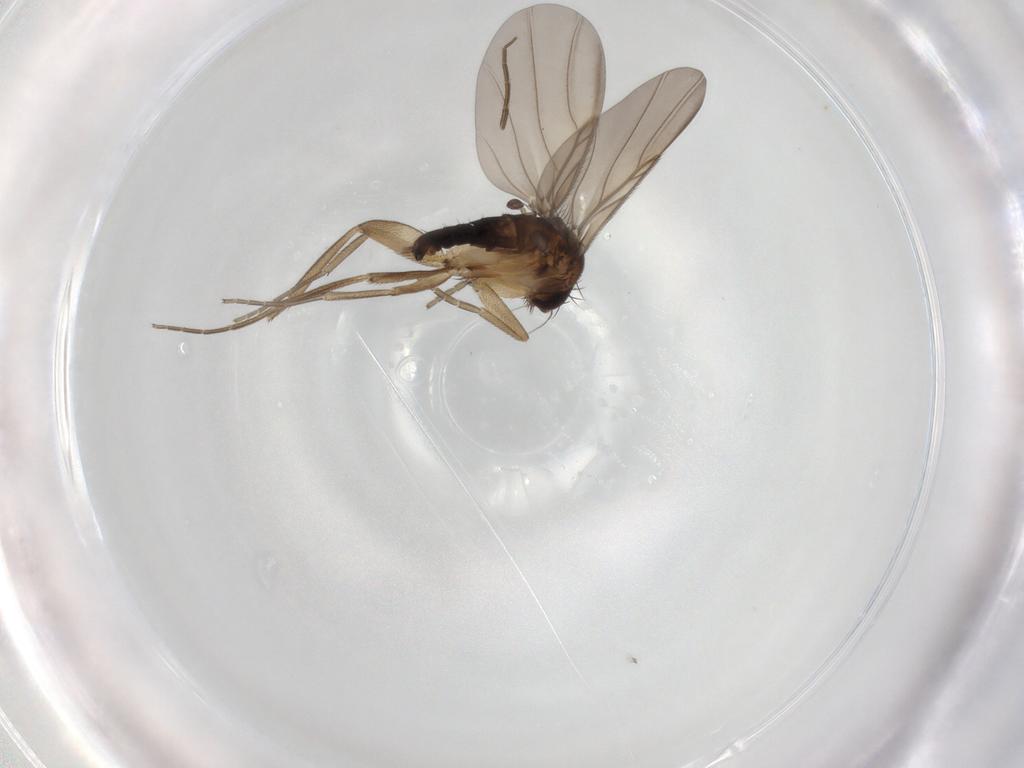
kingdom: Animalia
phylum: Arthropoda
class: Insecta
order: Diptera
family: Phoridae
